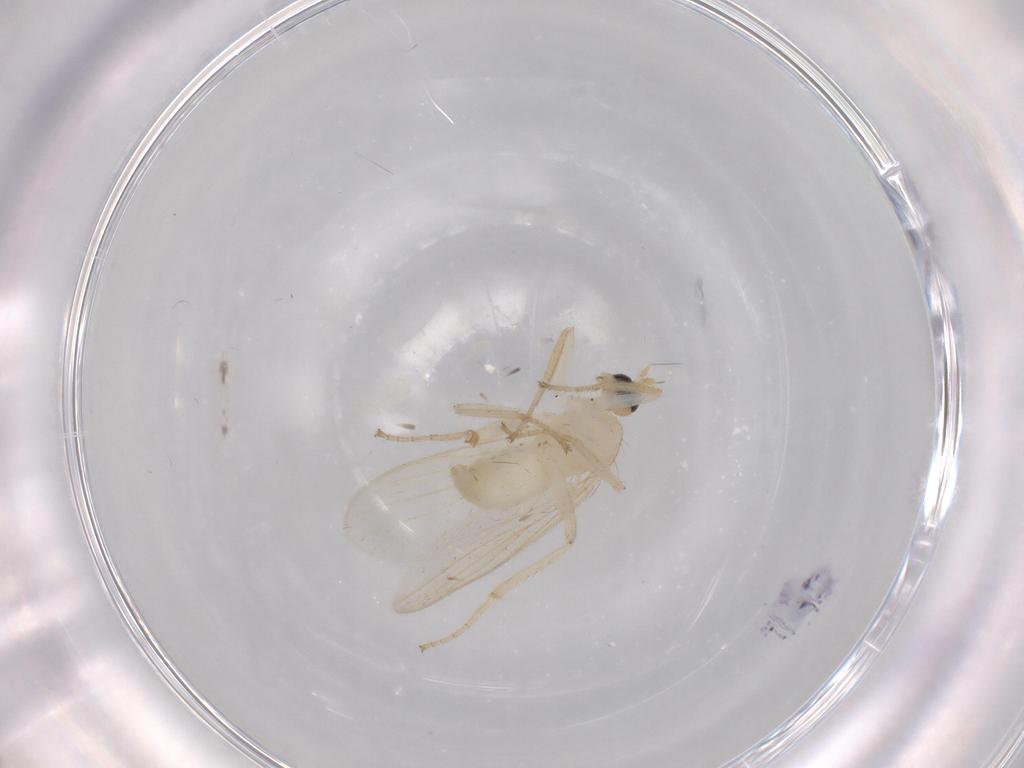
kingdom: Animalia
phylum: Arthropoda
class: Insecta
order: Diptera
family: Hybotidae
